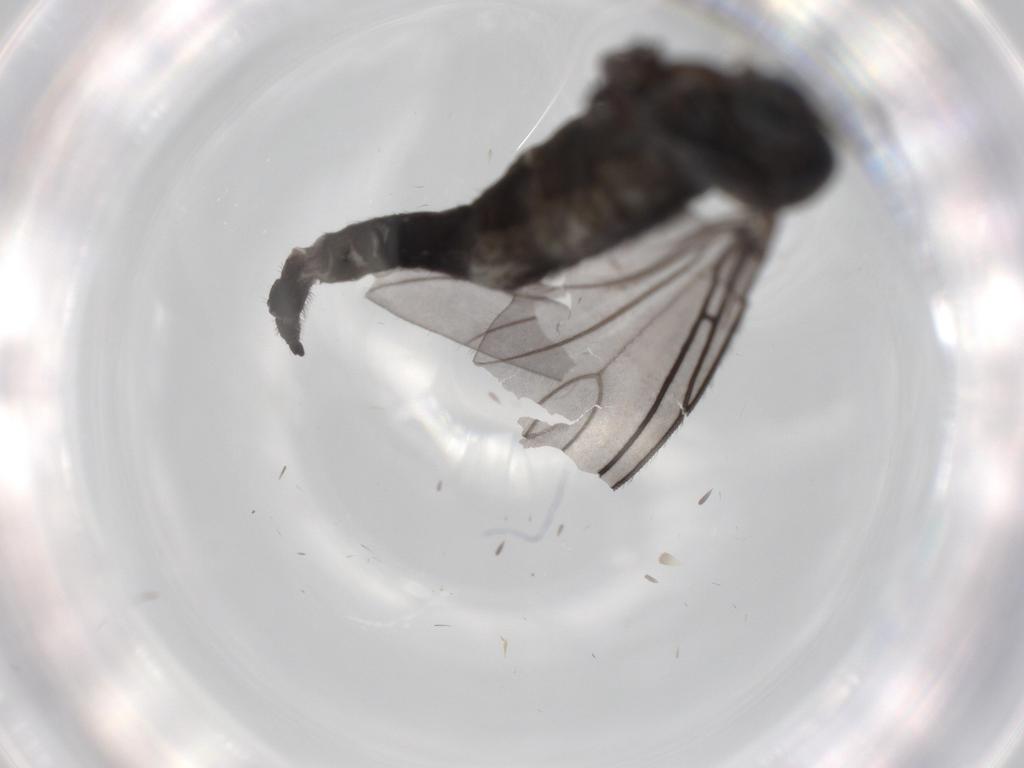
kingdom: Animalia
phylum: Arthropoda
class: Insecta
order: Diptera
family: Sciaridae
